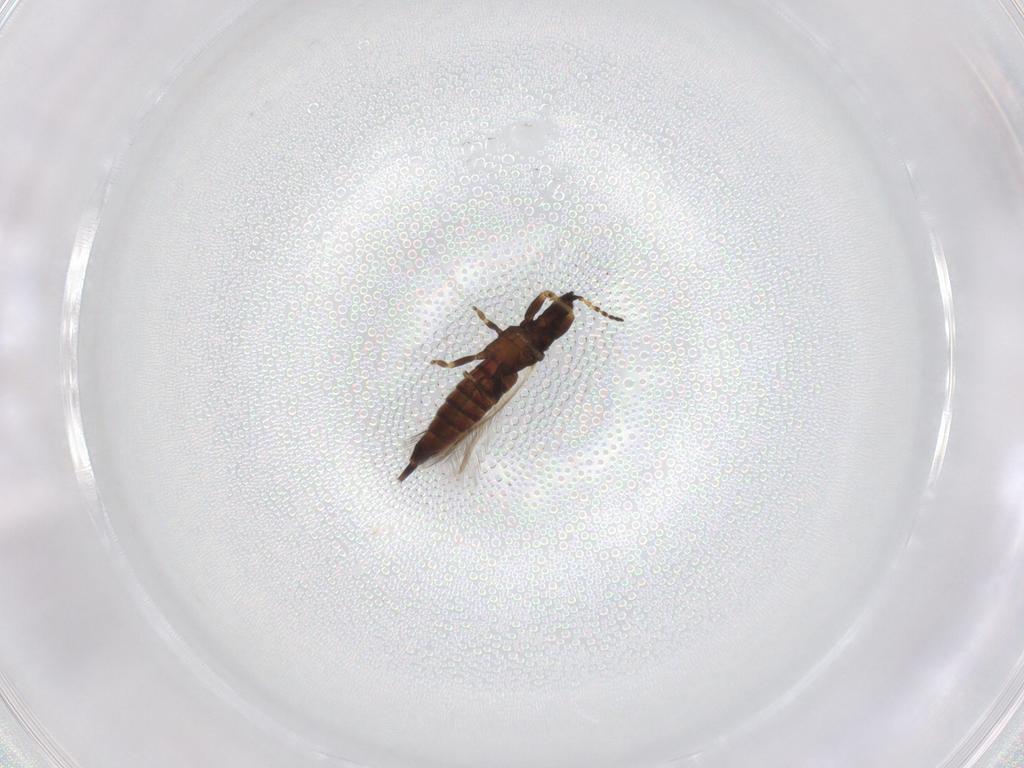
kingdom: Animalia
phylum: Arthropoda
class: Insecta
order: Thysanoptera
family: Phlaeothripidae
